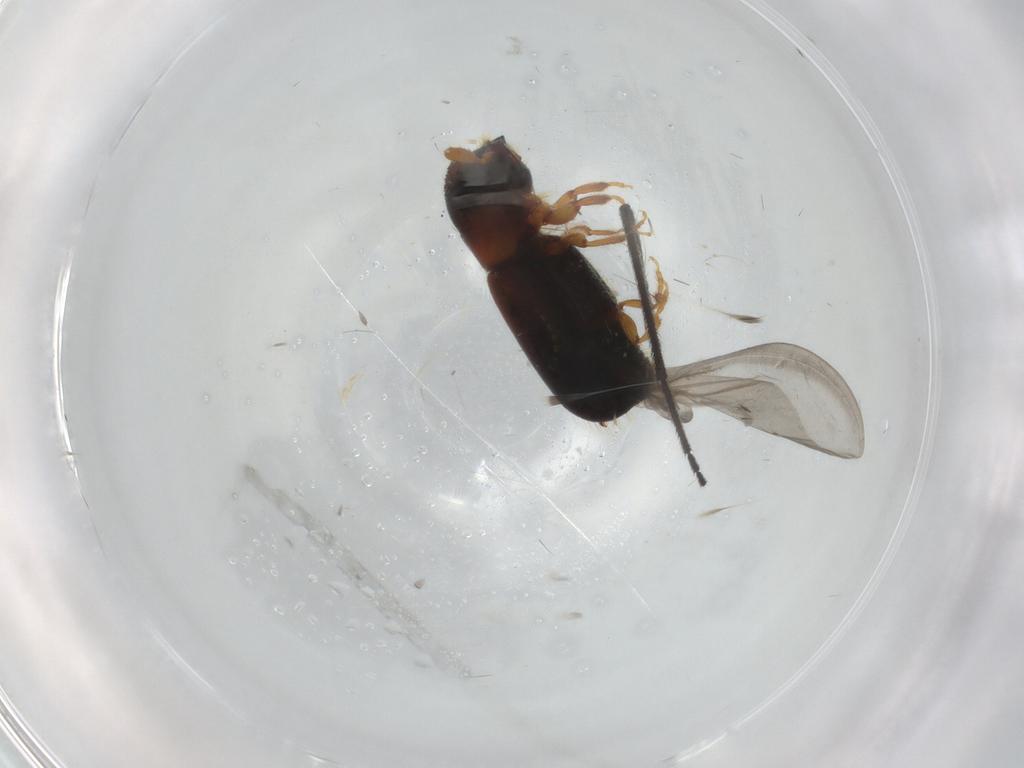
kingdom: Animalia
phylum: Arthropoda
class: Insecta
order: Coleoptera
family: Curculionidae
